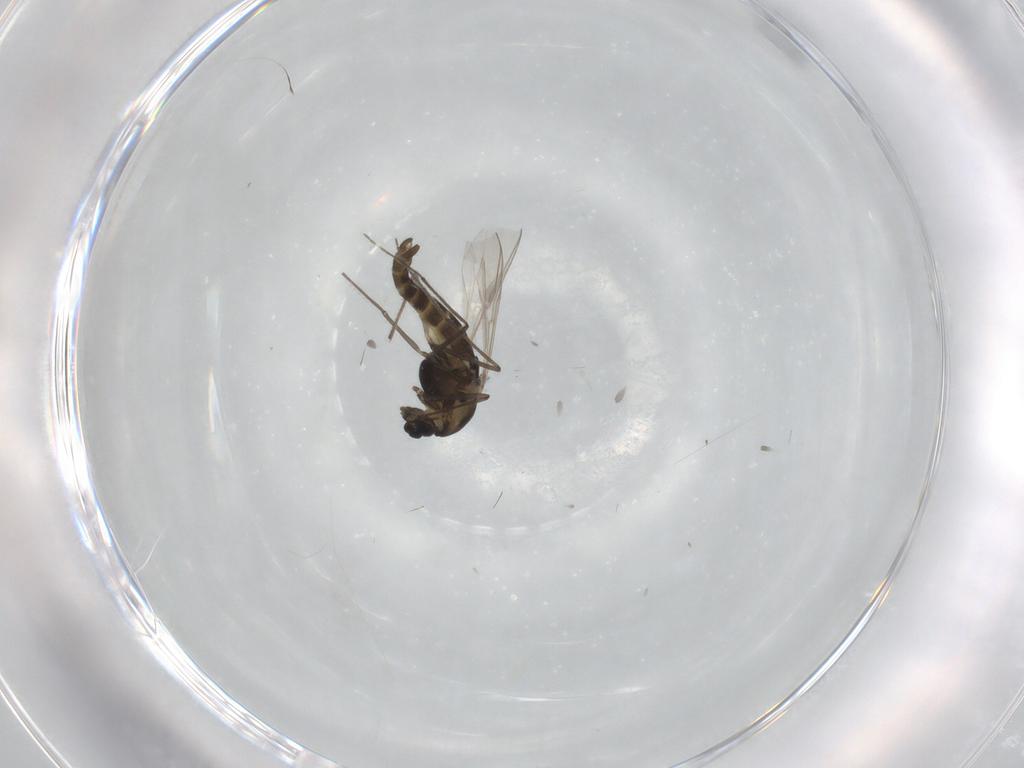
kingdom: Animalia
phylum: Arthropoda
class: Insecta
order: Diptera
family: Chironomidae
